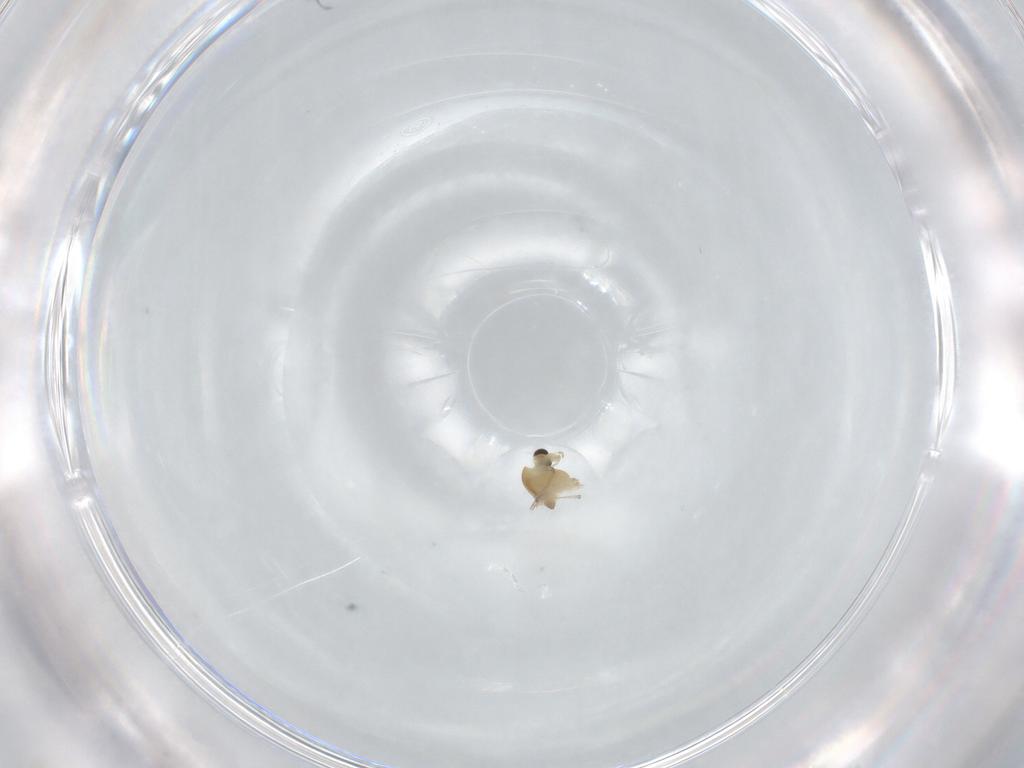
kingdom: Animalia
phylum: Arthropoda
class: Insecta
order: Diptera
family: Chironomidae
